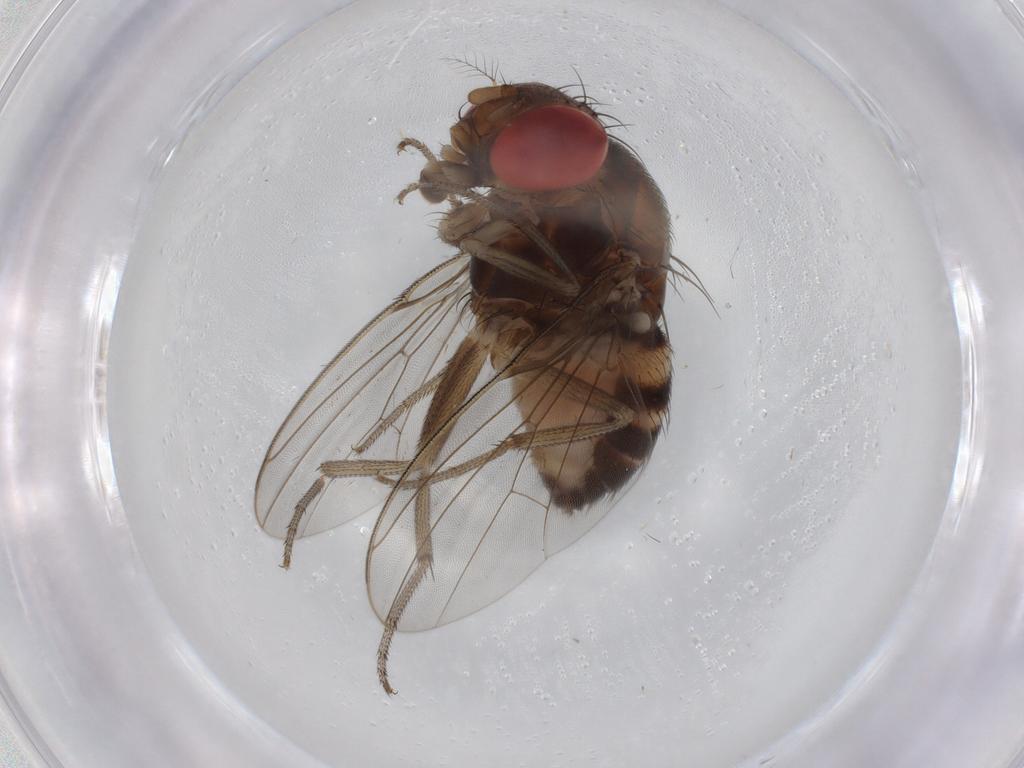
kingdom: Animalia
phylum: Arthropoda
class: Insecta
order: Diptera
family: Drosophilidae
